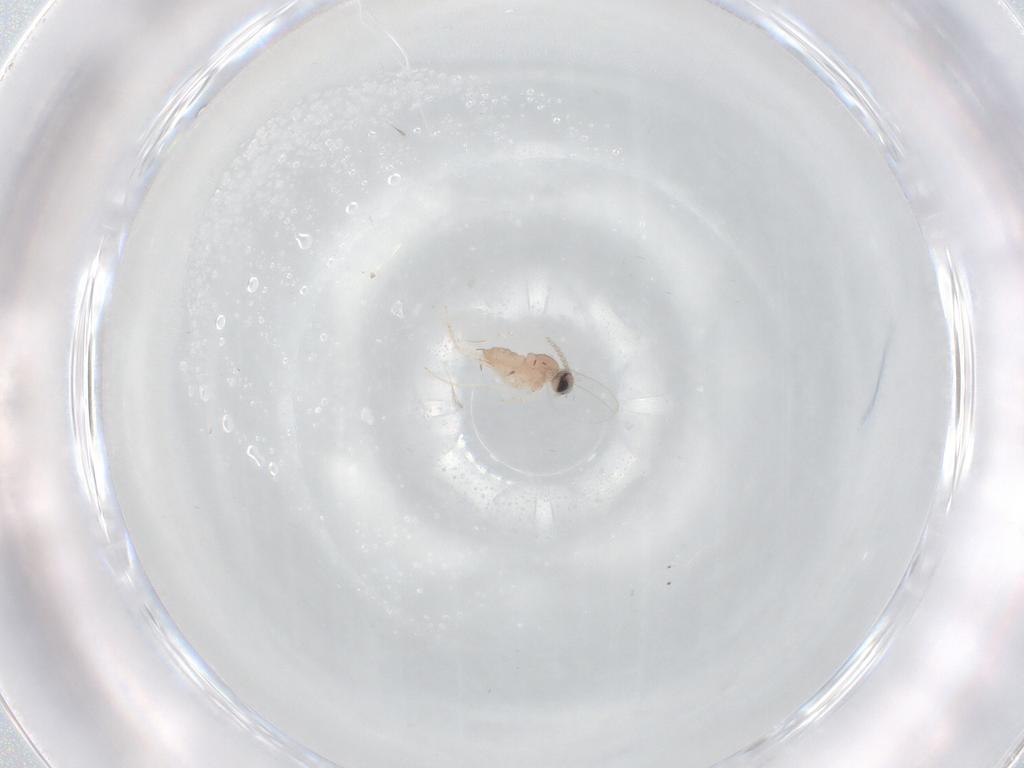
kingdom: Animalia
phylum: Arthropoda
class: Insecta
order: Diptera
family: Cecidomyiidae
